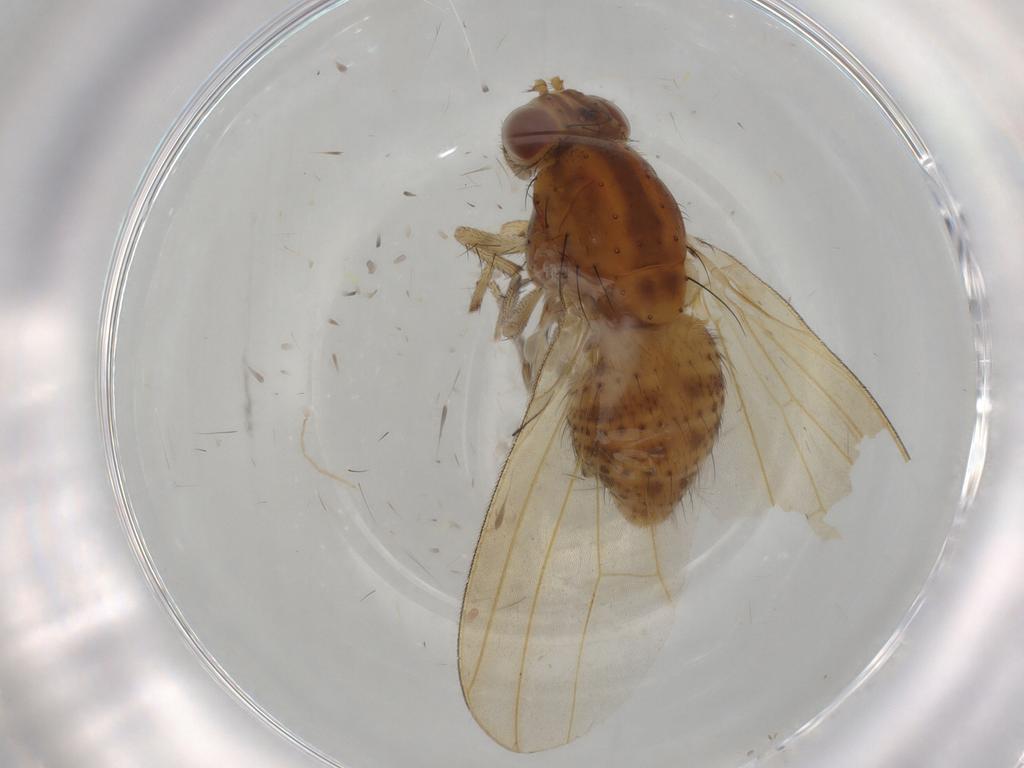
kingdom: Animalia
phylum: Arthropoda
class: Insecta
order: Diptera
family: Lauxaniidae
